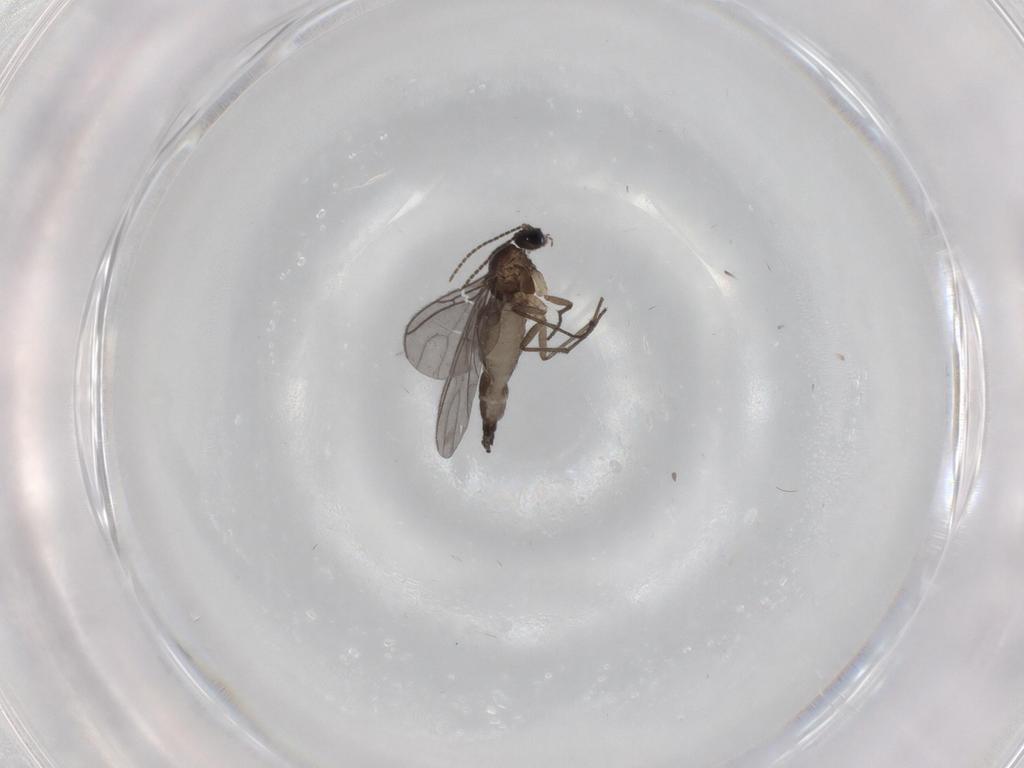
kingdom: Animalia
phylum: Arthropoda
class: Insecta
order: Diptera
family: Sciaridae
